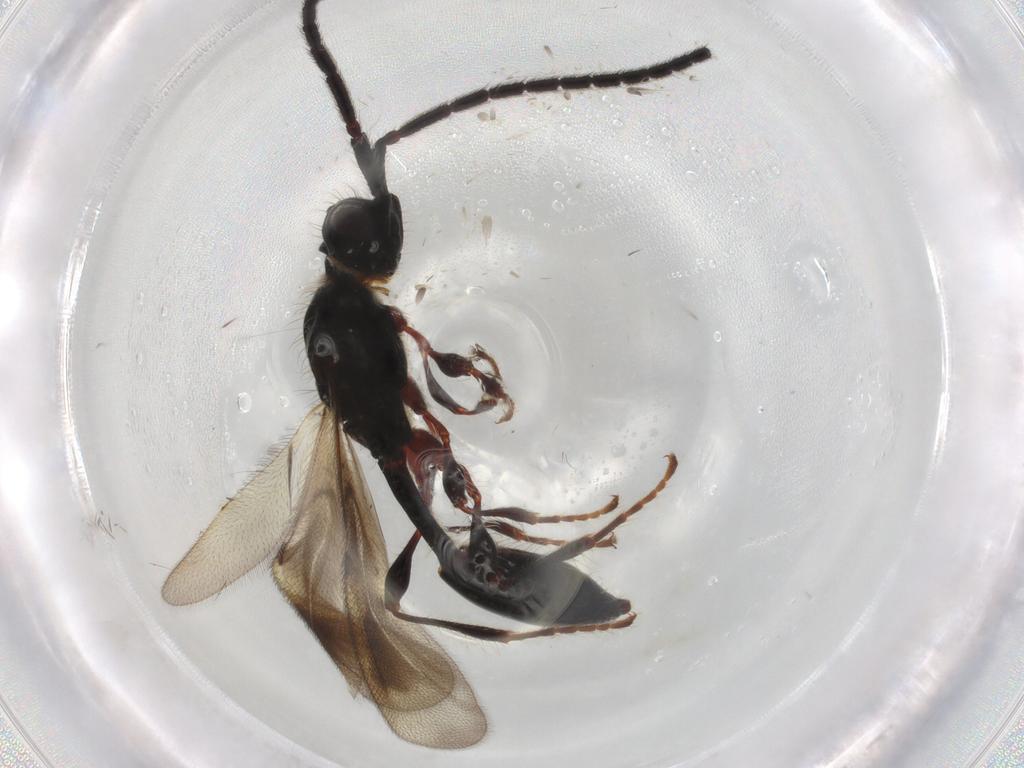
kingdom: Animalia
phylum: Arthropoda
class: Insecta
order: Hymenoptera
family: Diapriidae
